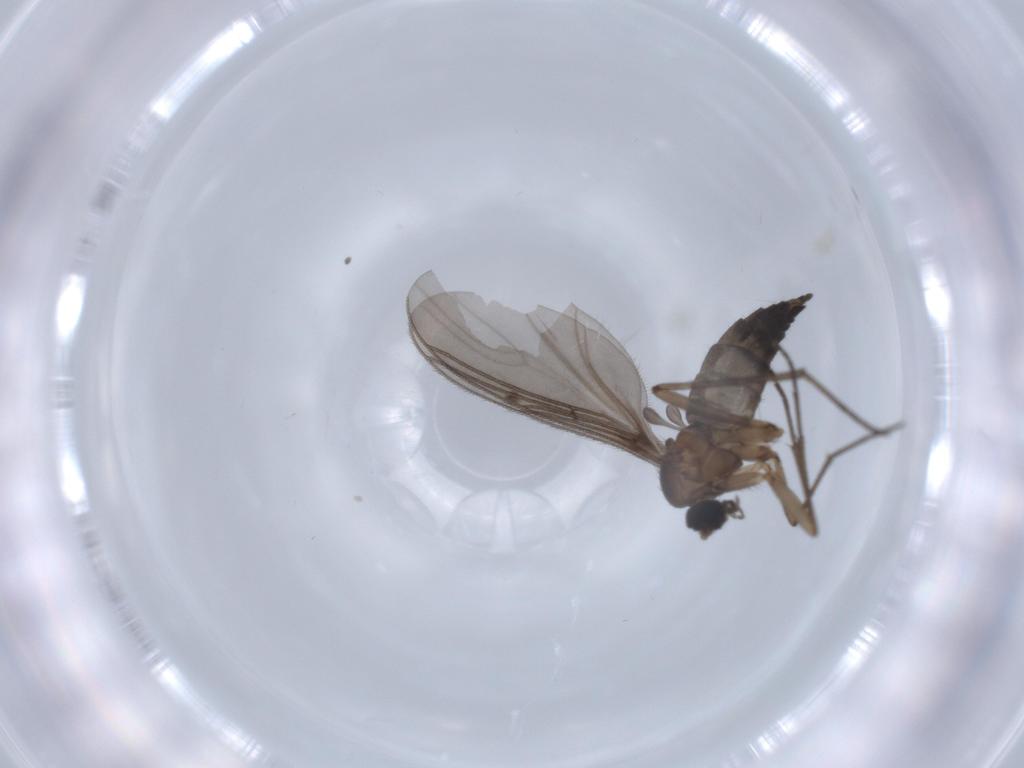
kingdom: Animalia
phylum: Arthropoda
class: Insecta
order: Diptera
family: Sciaridae
